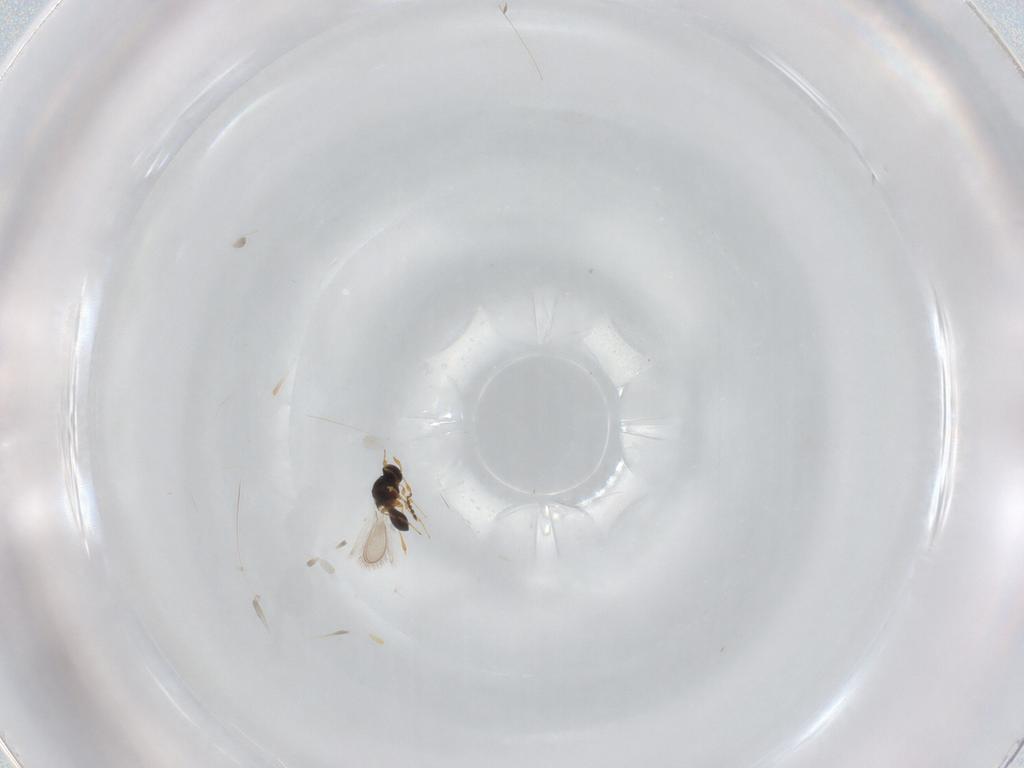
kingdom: Animalia
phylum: Arthropoda
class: Insecta
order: Hymenoptera
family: Platygastridae
